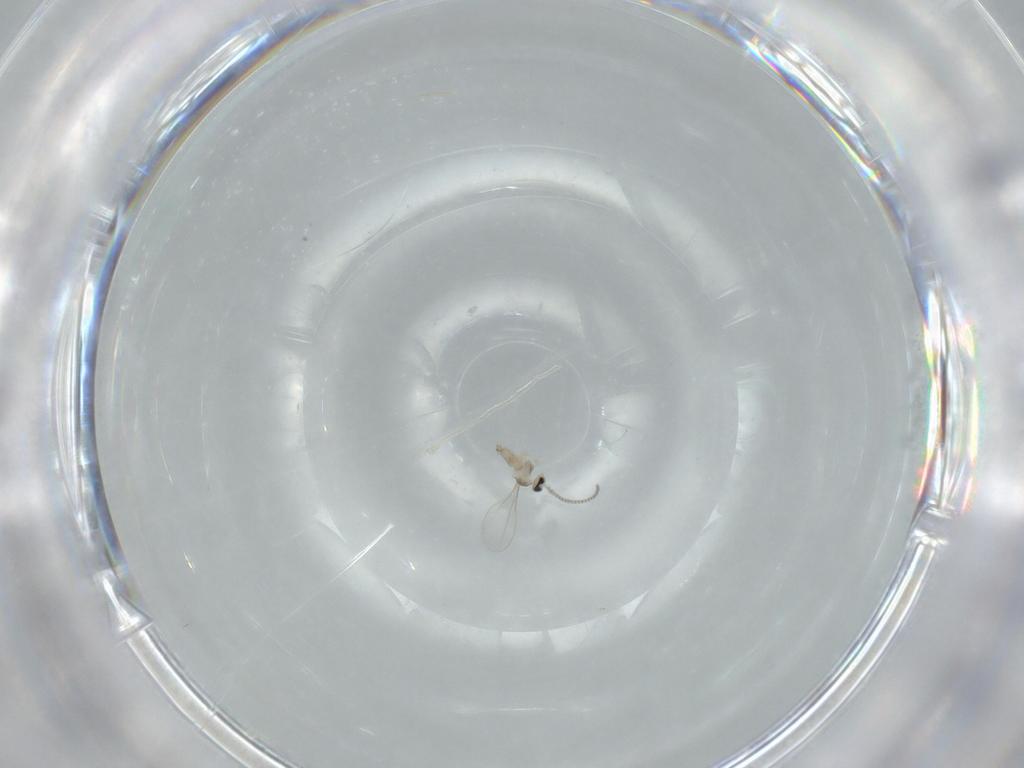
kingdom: Animalia
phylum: Arthropoda
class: Insecta
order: Diptera
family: Cecidomyiidae
